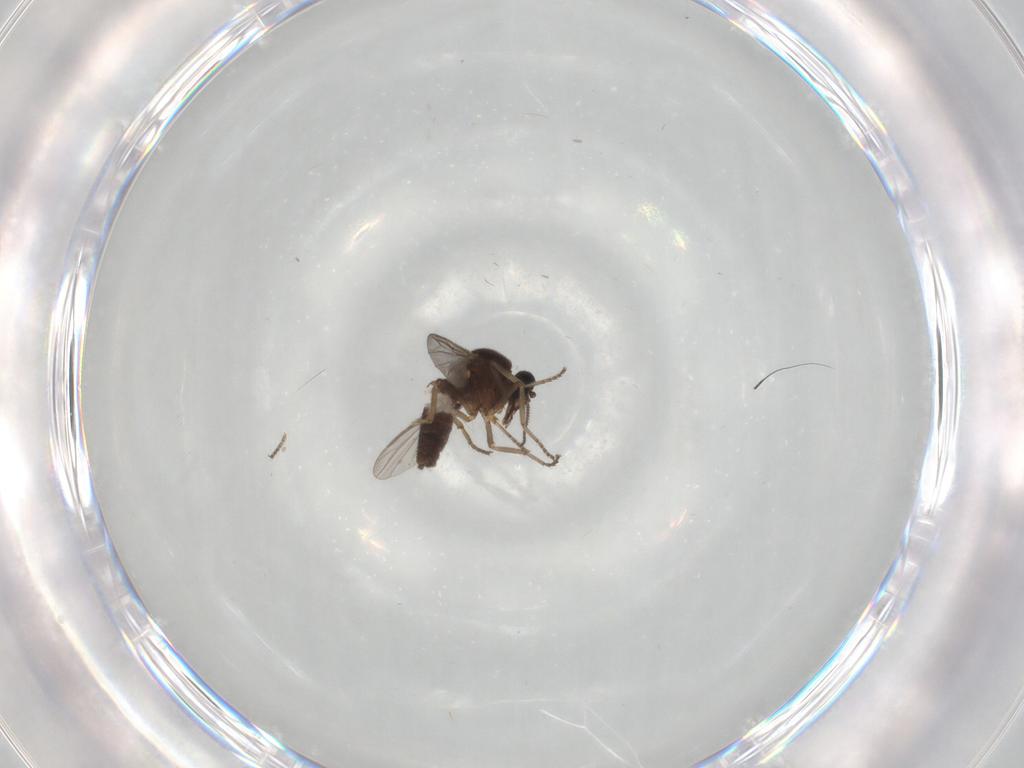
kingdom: Animalia
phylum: Arthropoda
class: Insecta
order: Diptera
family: Ceratopogonidae
